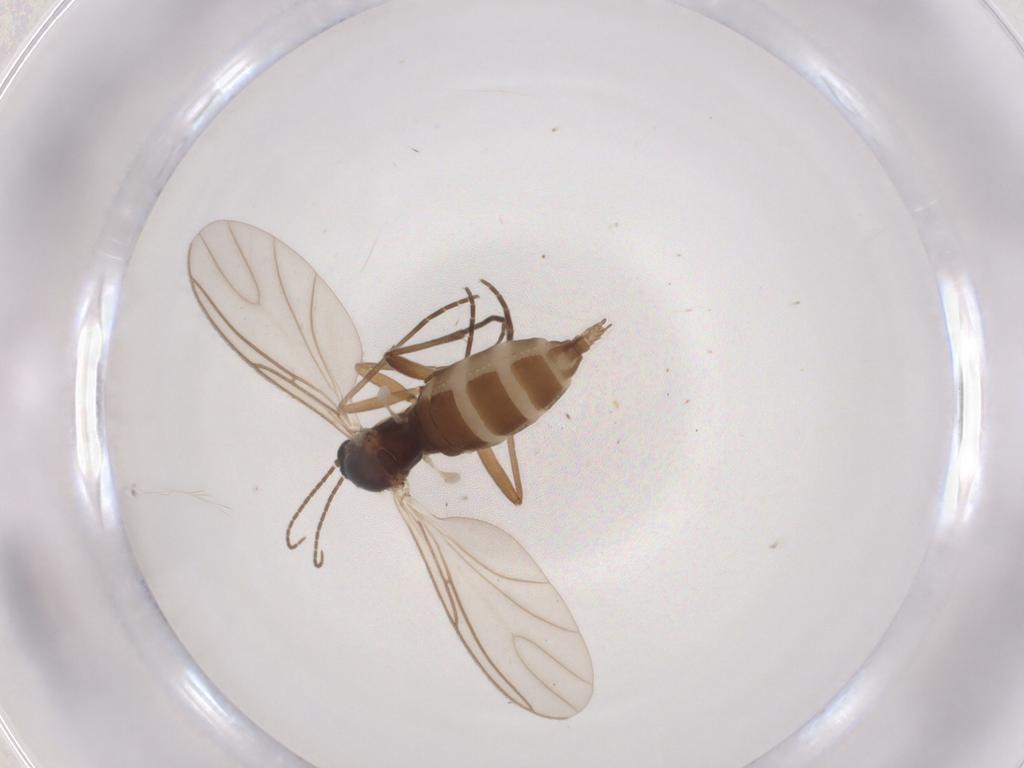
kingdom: Animalia
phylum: Arthropoda
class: Insecta
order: Diptera
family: Sciaridae
